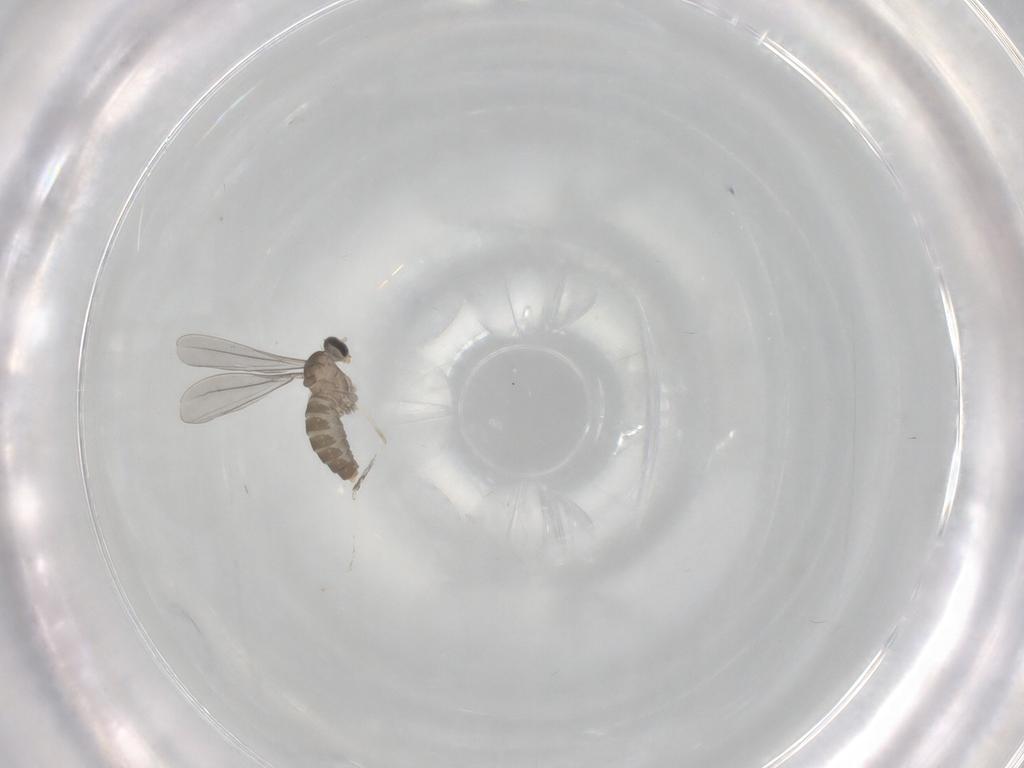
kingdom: Animalia
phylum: Arthropoda
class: Insecta
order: Diptera
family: Cecidomyiidae
